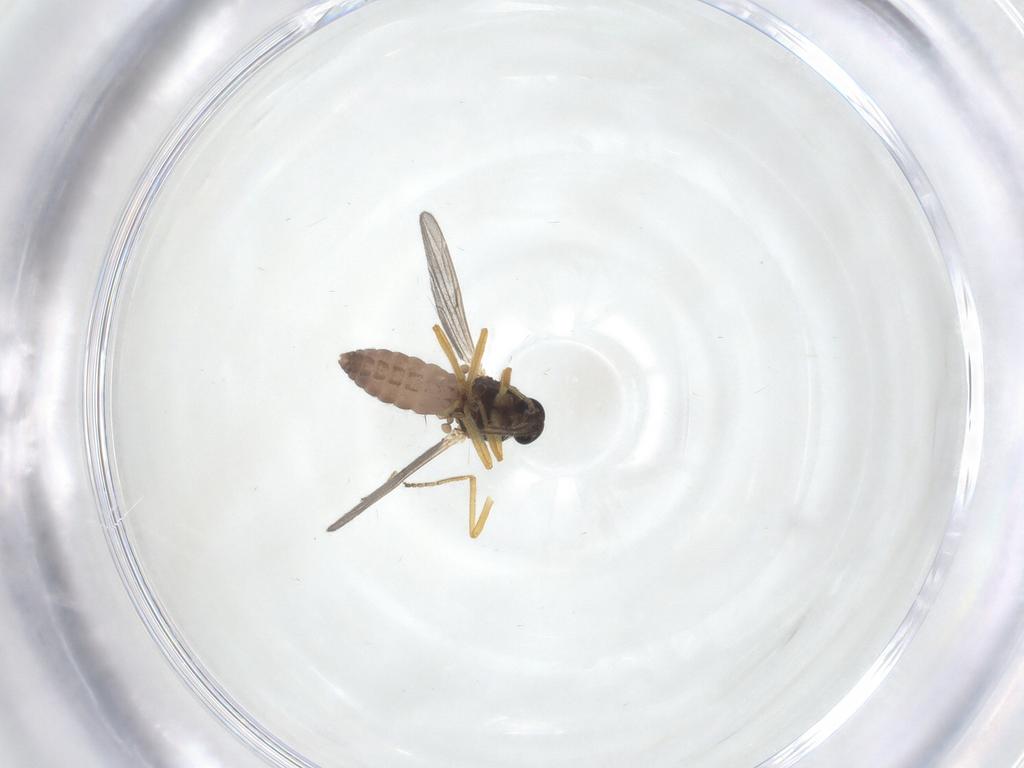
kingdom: Animalia
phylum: Arthropoda
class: Insecta
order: Diptera
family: Ceratopogonidae
